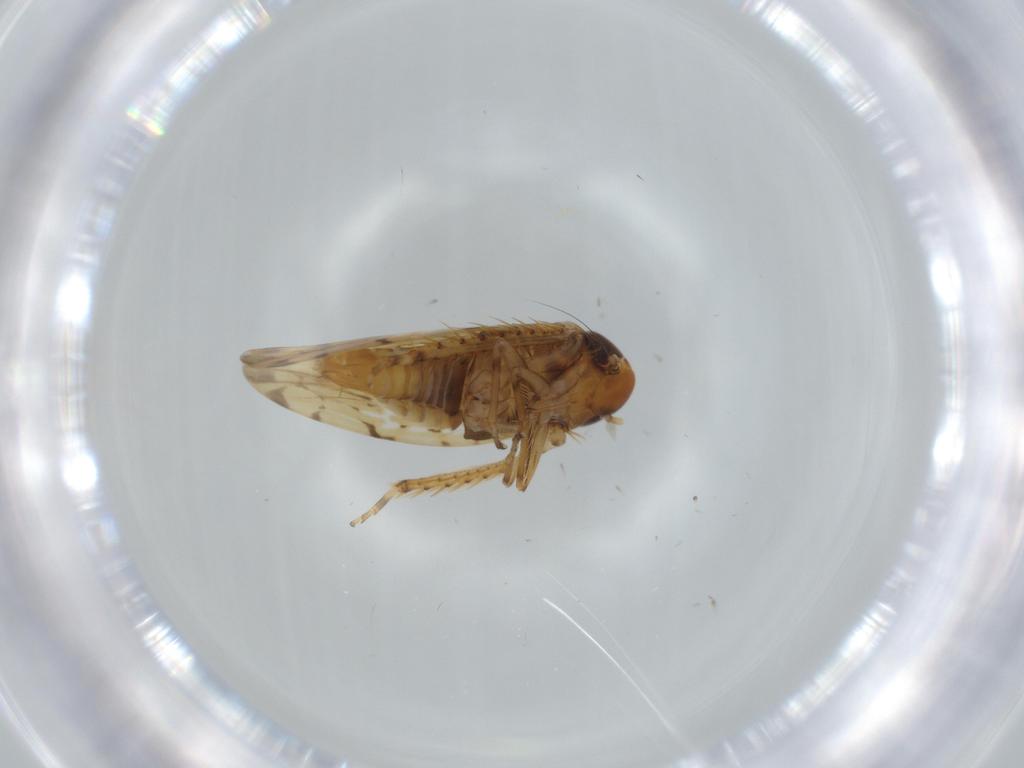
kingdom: Animalia
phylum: Arthropoda
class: Insecta
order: Hemiptera
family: Cicadellidae
